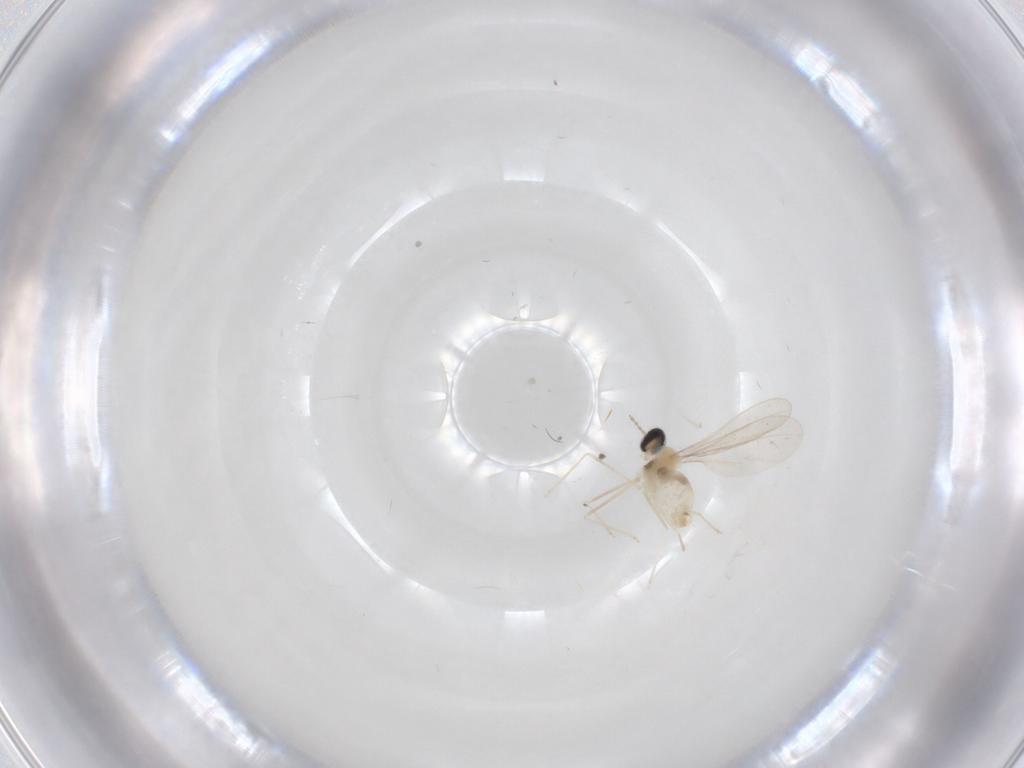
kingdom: Animalia
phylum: Arthropoda
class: Insecta
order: Diptera
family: Cecidomyiidae
